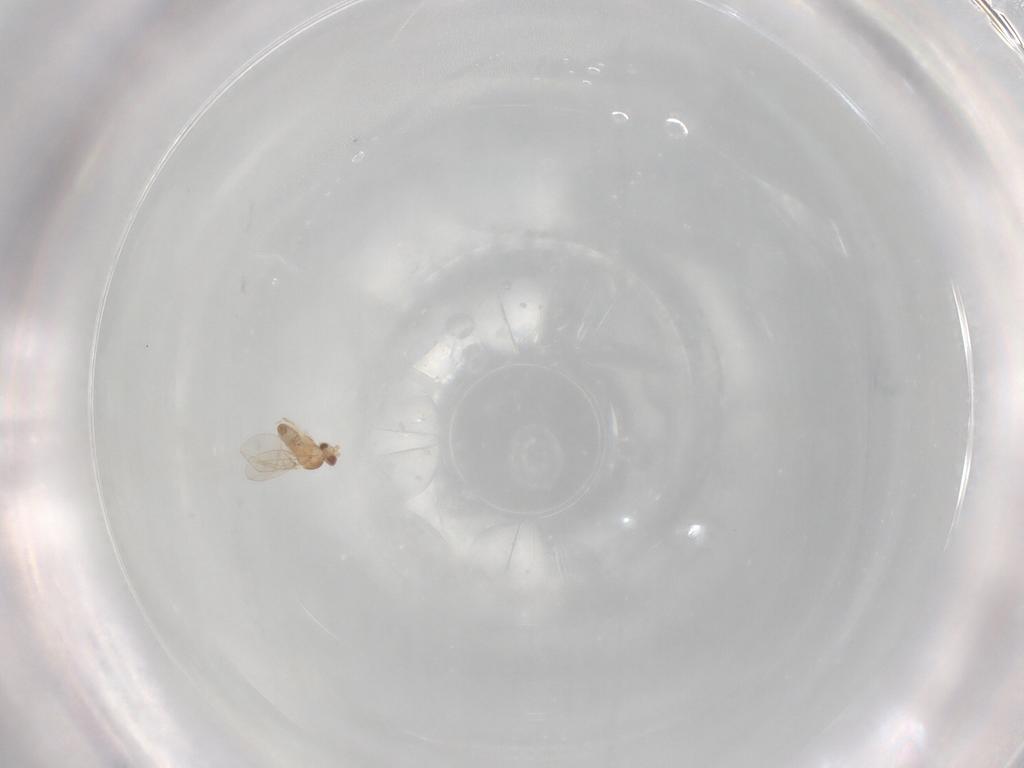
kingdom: Animalia
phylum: Arthropoda
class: Insecta
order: Diptera
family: Cecidomyiidae
